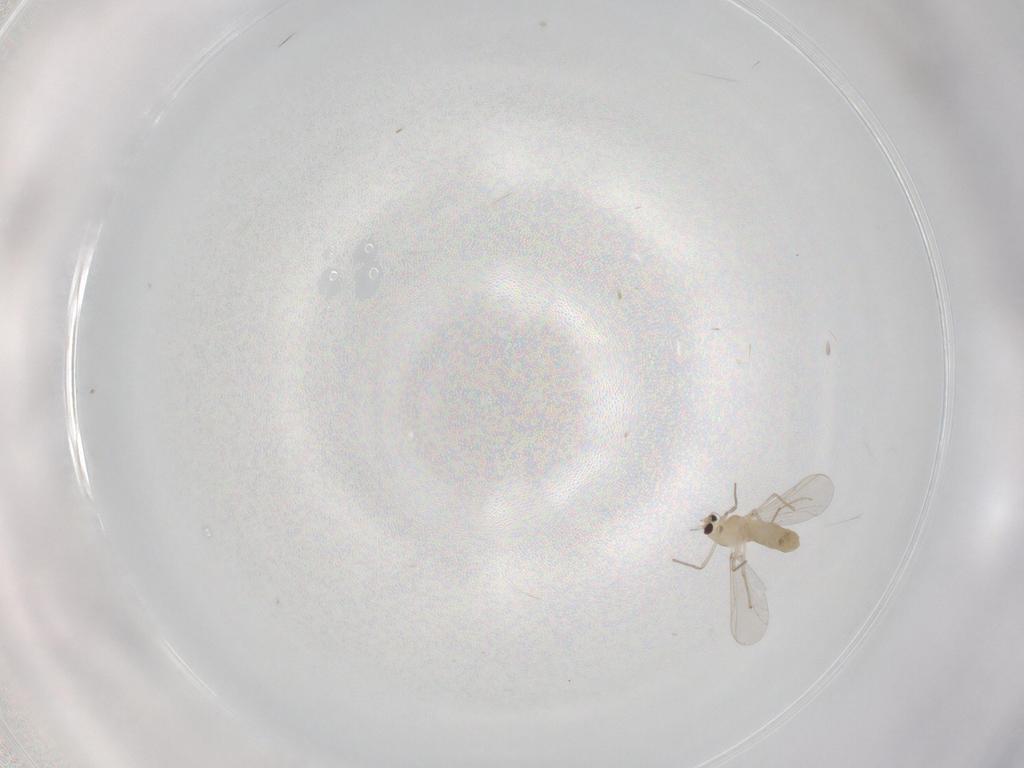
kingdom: Animalia
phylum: Arthropoda
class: Insecta
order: Diptera
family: Chironomidae
